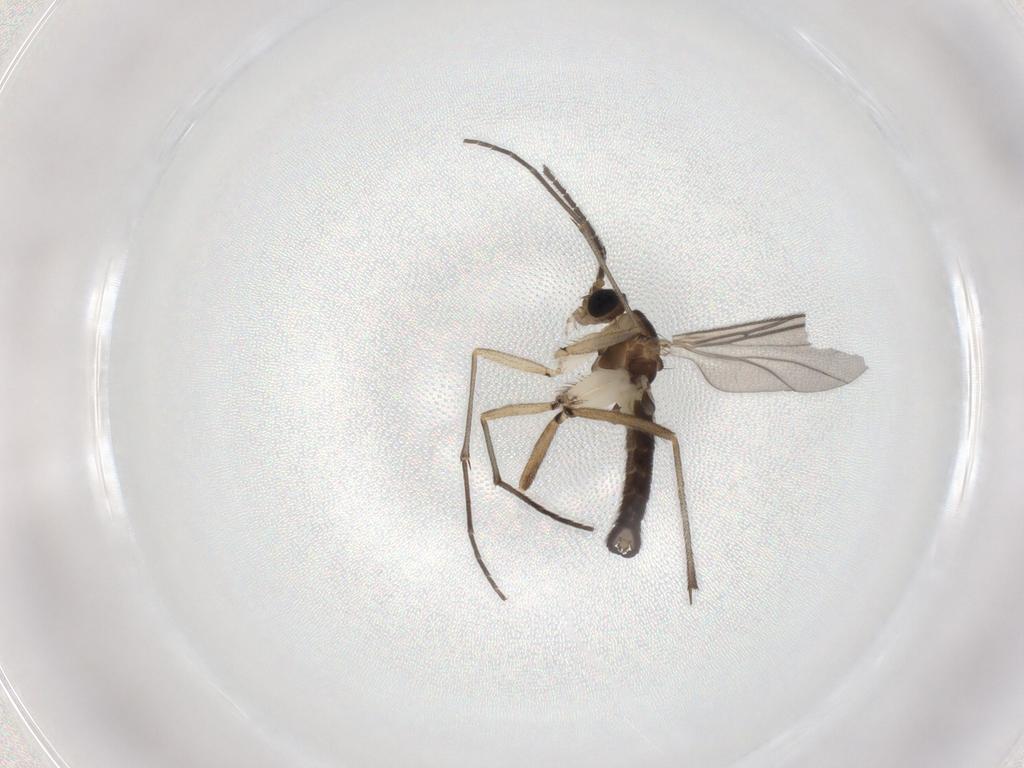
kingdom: Animalia
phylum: Arthropoda
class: Insecta
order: Diptera
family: Sciaridae
